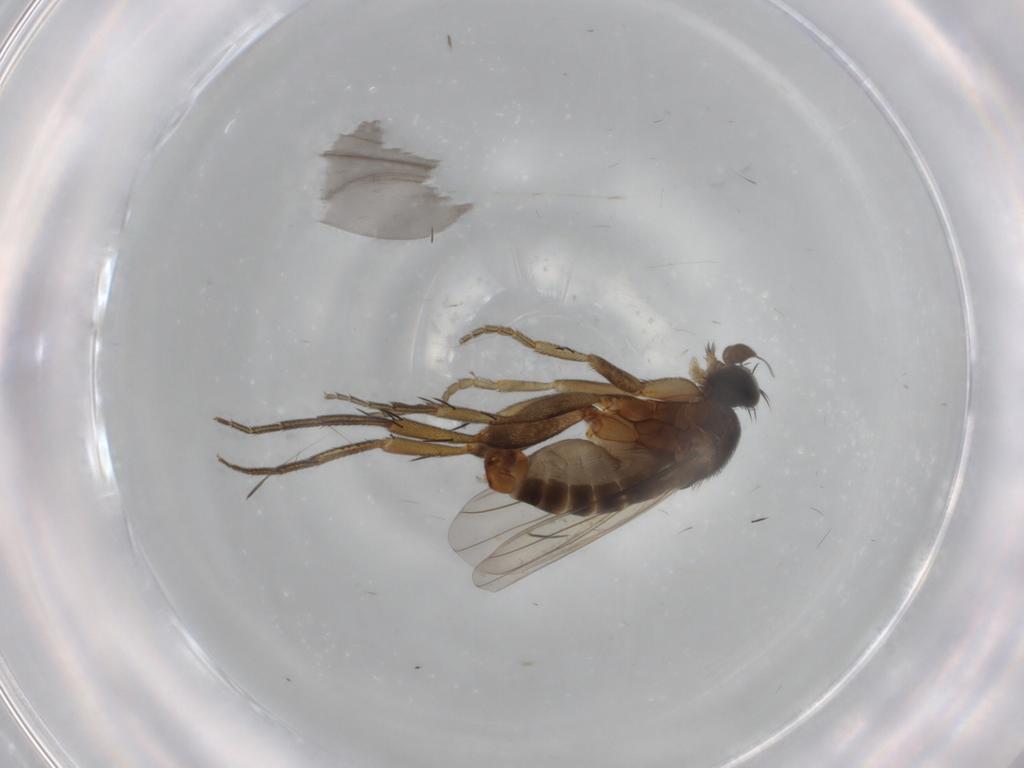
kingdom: Animalia
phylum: Arthropoda
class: Insecta
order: Diptera
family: Phoridae
